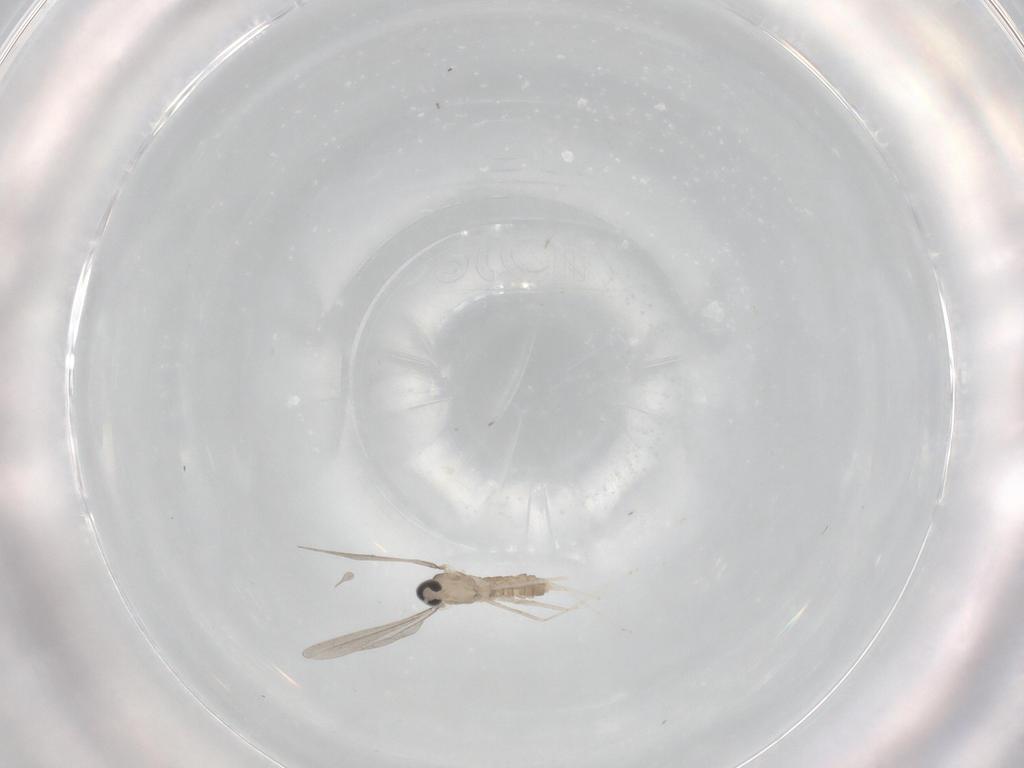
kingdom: Animalia
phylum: Arthropoda
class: Insecta
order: Diptera
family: Cecidomyiidae
